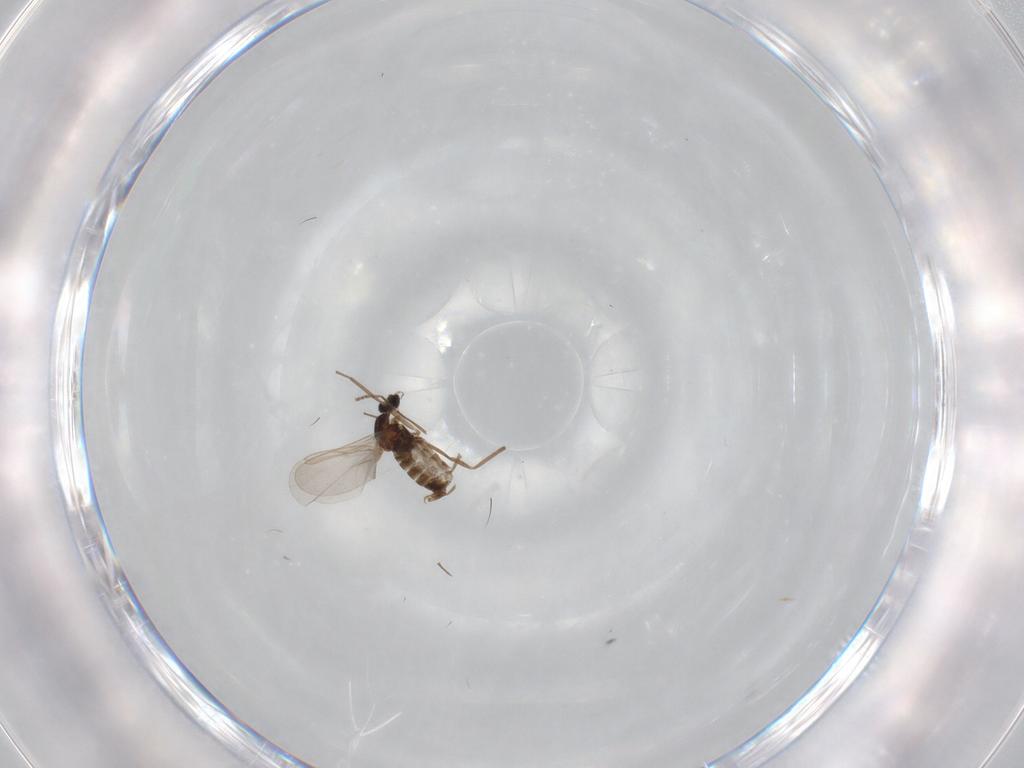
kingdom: Animalia
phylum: Arthropoda
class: Insecta
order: Diptera
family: Cecidomyiidae
